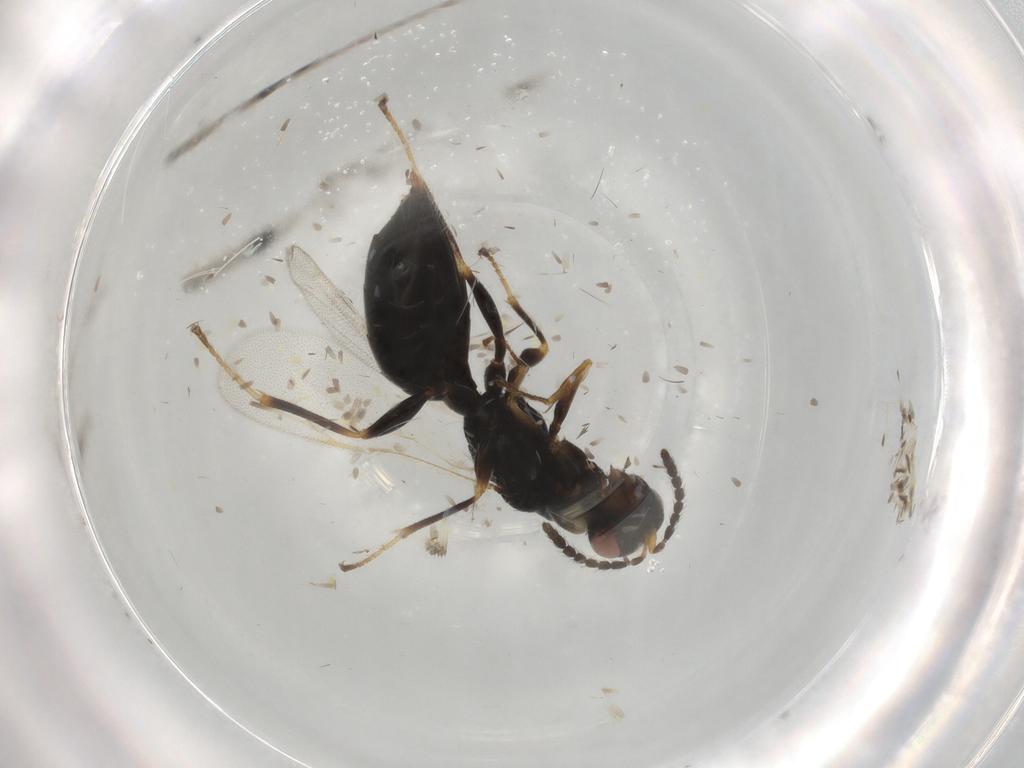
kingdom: Animalia
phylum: Arthropoda
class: Insecta
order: Hymenoptera
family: Eurytomidae
